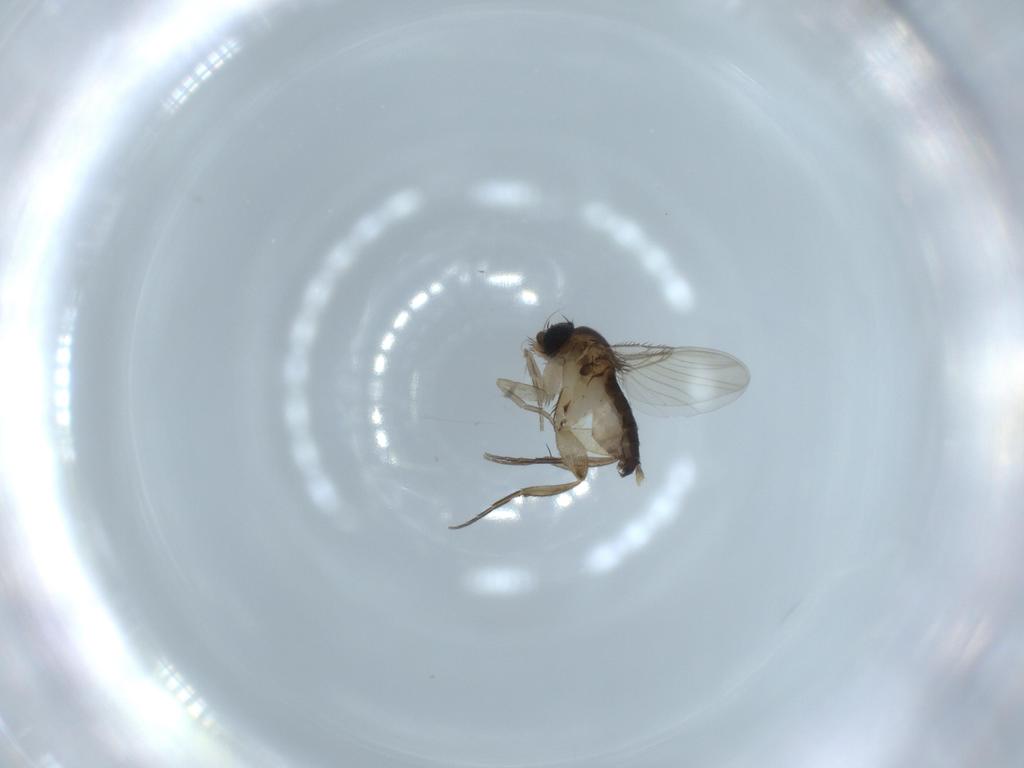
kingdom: Animalia
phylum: Arthropoda
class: Insecta
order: Diptera
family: Phoridae
